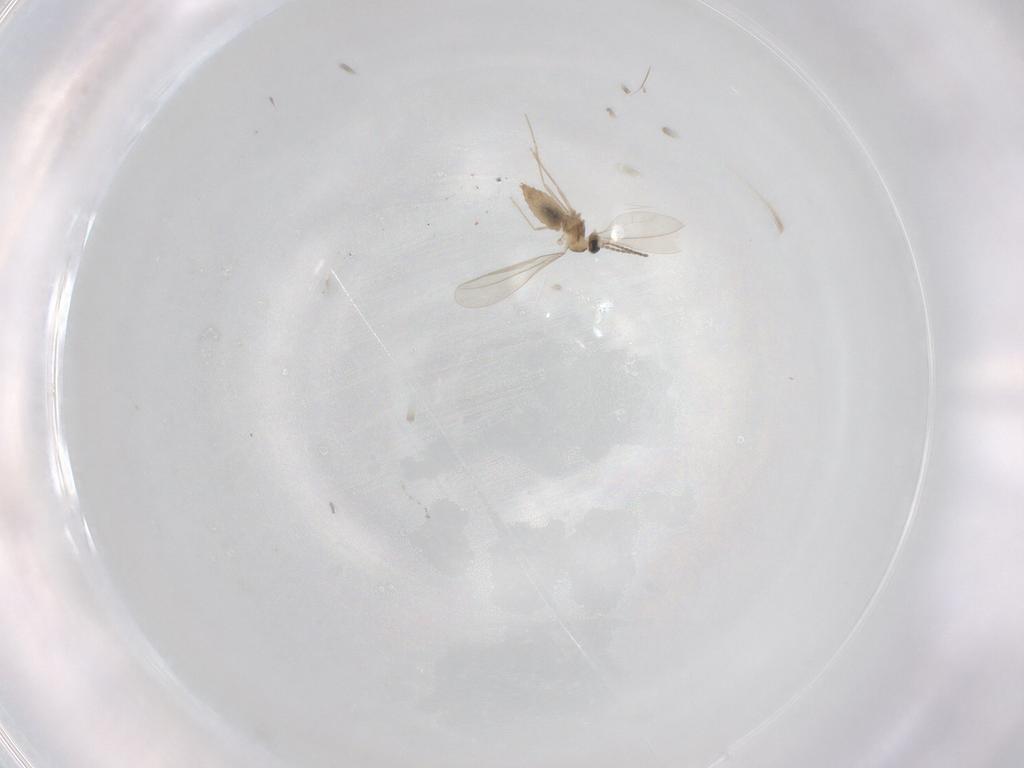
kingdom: Animalia
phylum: Arthropoda
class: Insecta
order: Diptera
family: Cecidomyiidae
